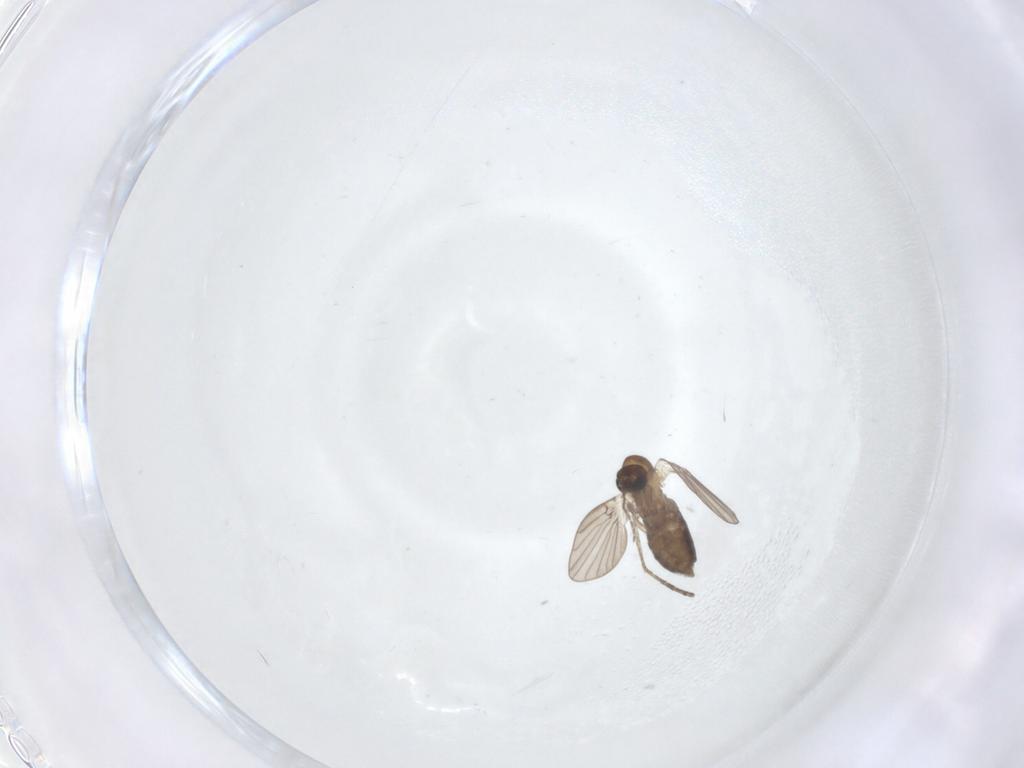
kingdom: Animalia
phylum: Arthropoda
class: Insecta
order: Diptera
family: Psychodidae
